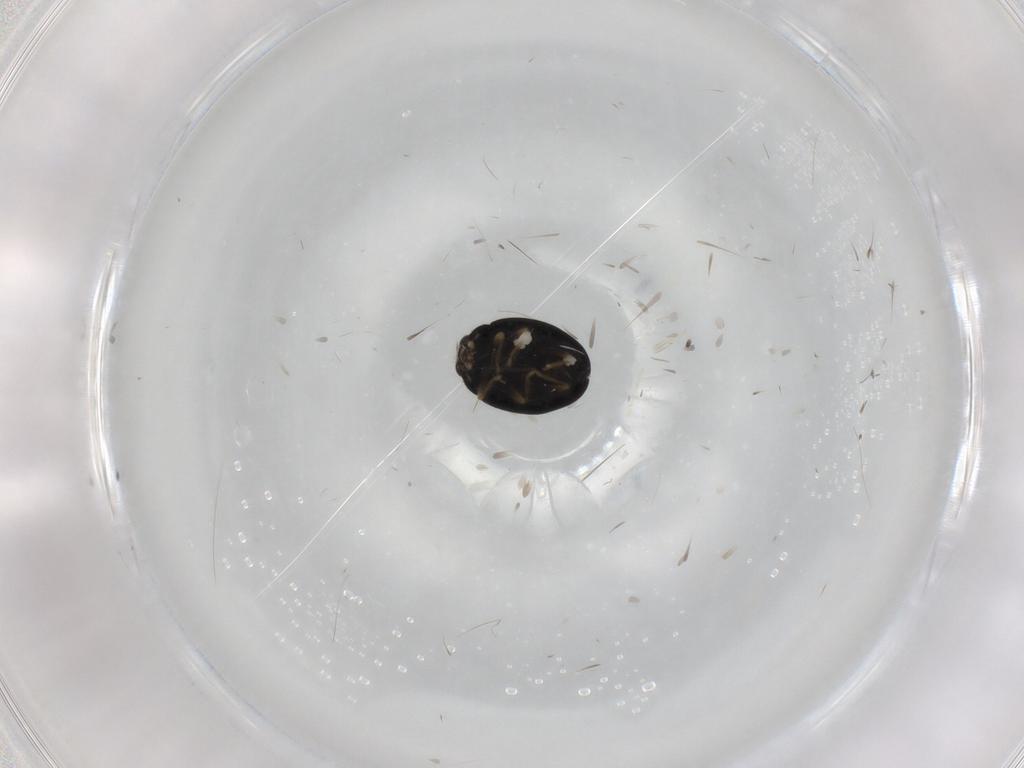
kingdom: Animalia
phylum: Arthropoda
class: Insecta
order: Coleoptera
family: Coccinellidae
